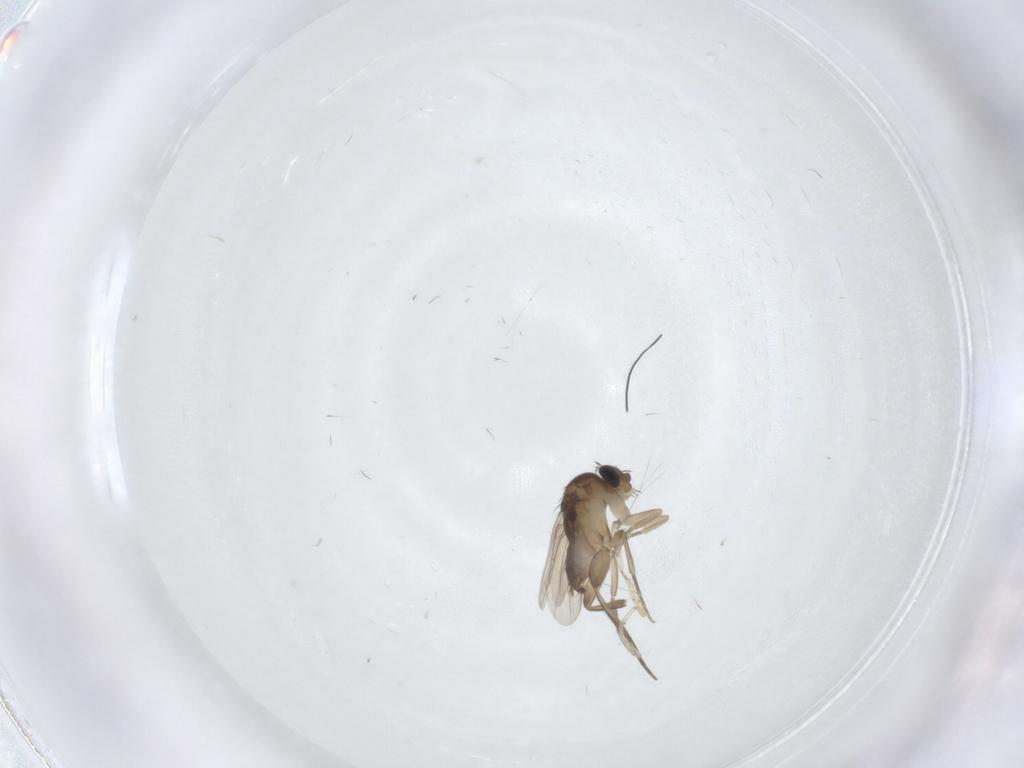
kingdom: Animalia
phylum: Arthropoda
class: Insecta
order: Diptera
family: Phoridae
